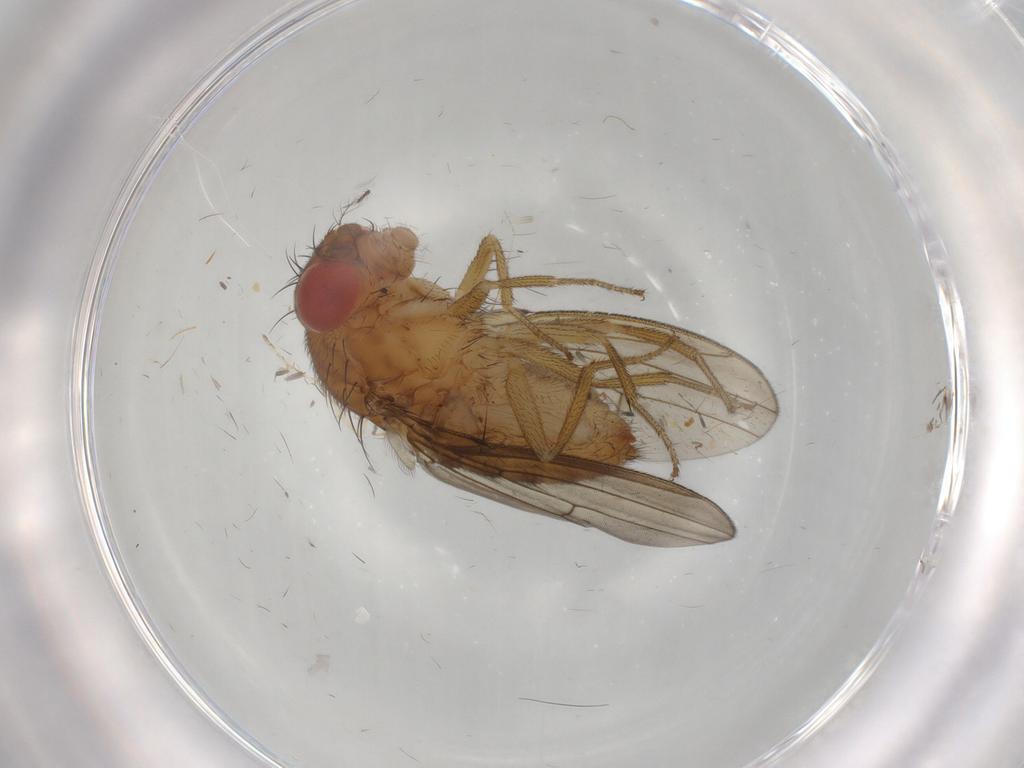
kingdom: Animalia
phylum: Arthropoda
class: Insecta
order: Diptera
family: Drosophilidae
